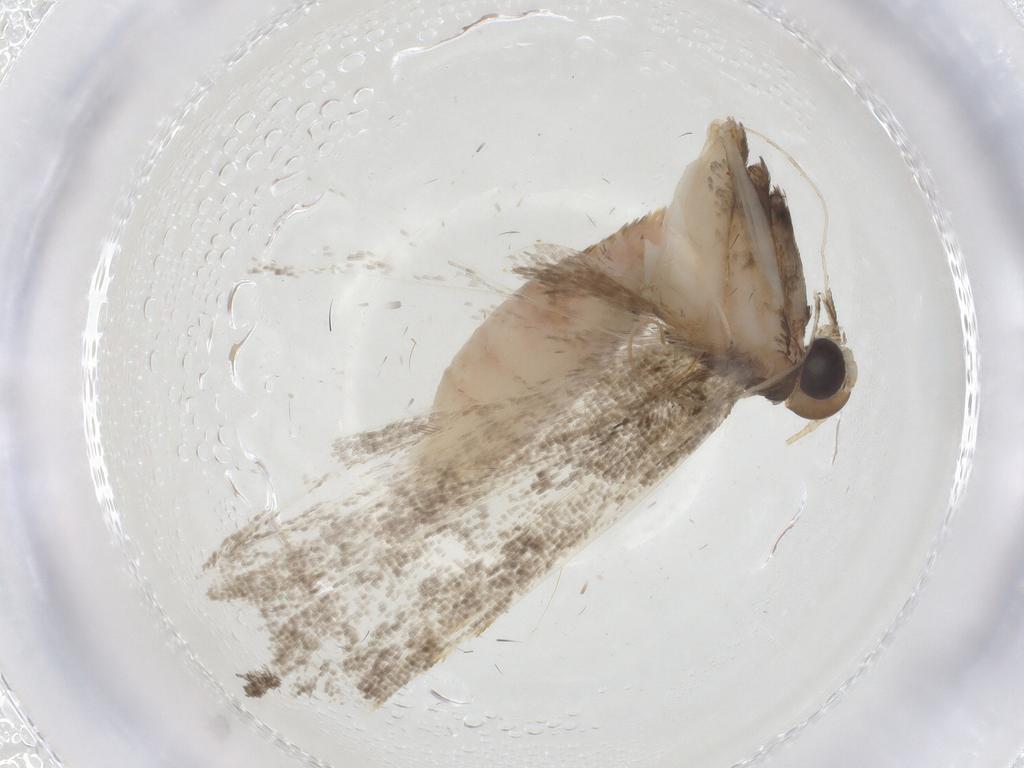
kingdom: Animalia
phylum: Arthropoda
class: Insecta
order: Lepidoptera
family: Cosmopterigidae
